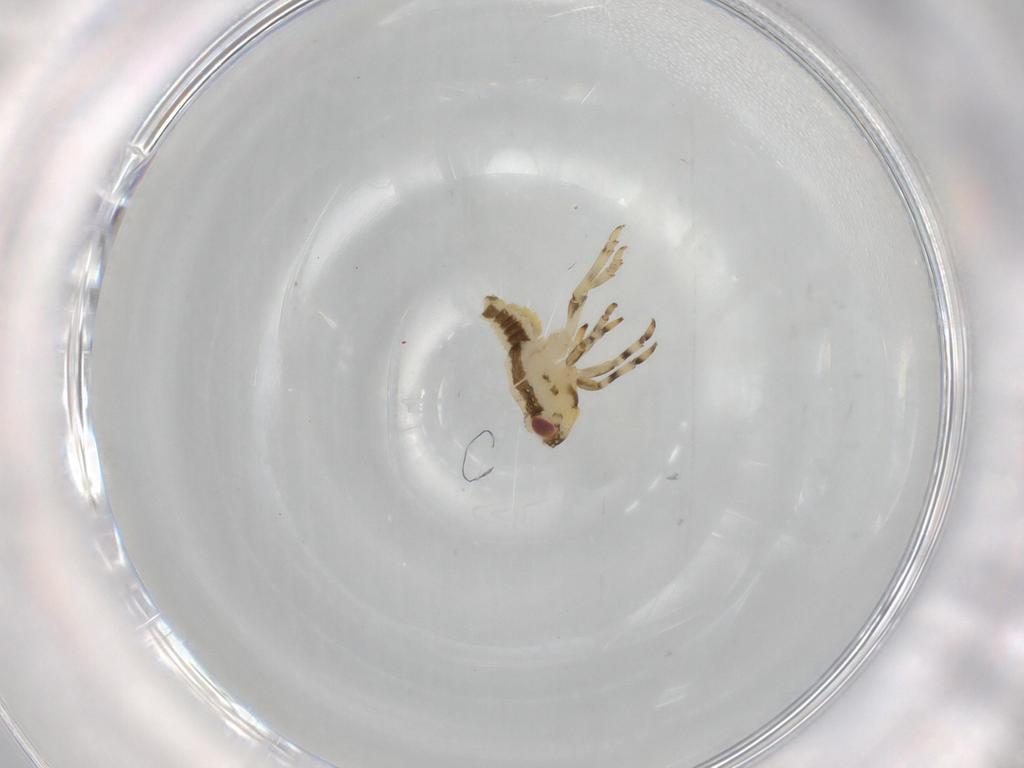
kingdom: Animalia
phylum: Arthropoda
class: Insecta
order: Hemiptera
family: Issidae
